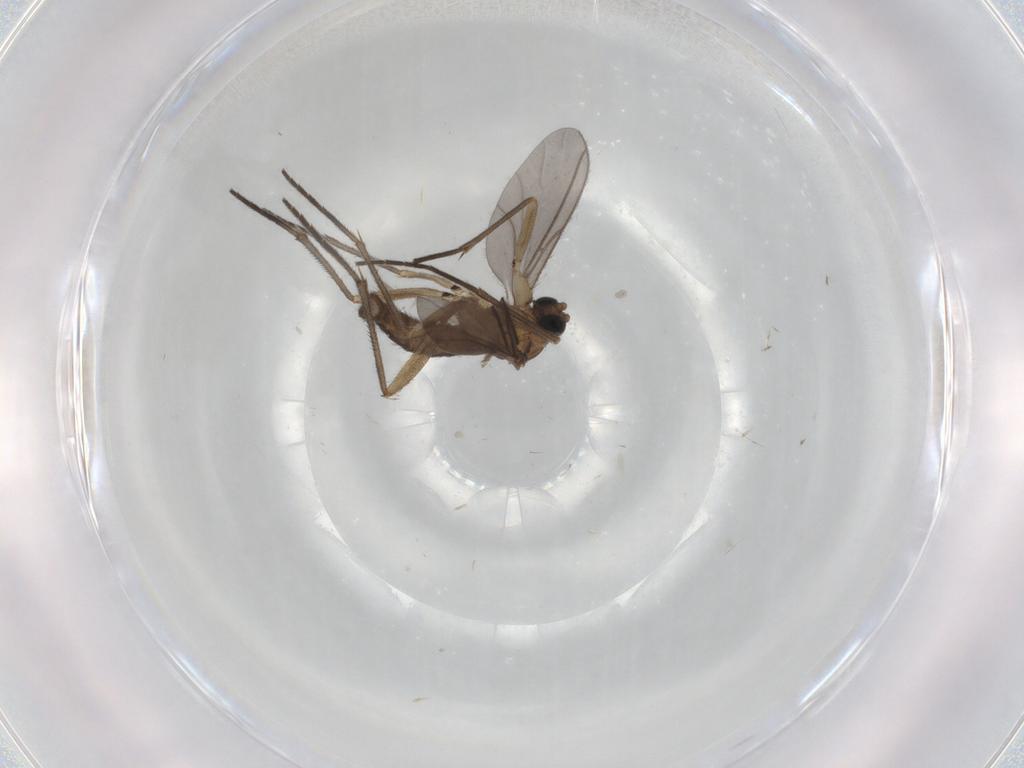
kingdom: Animalia
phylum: Arthropoda
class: Insecta
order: Diptera
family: Sciaridae
